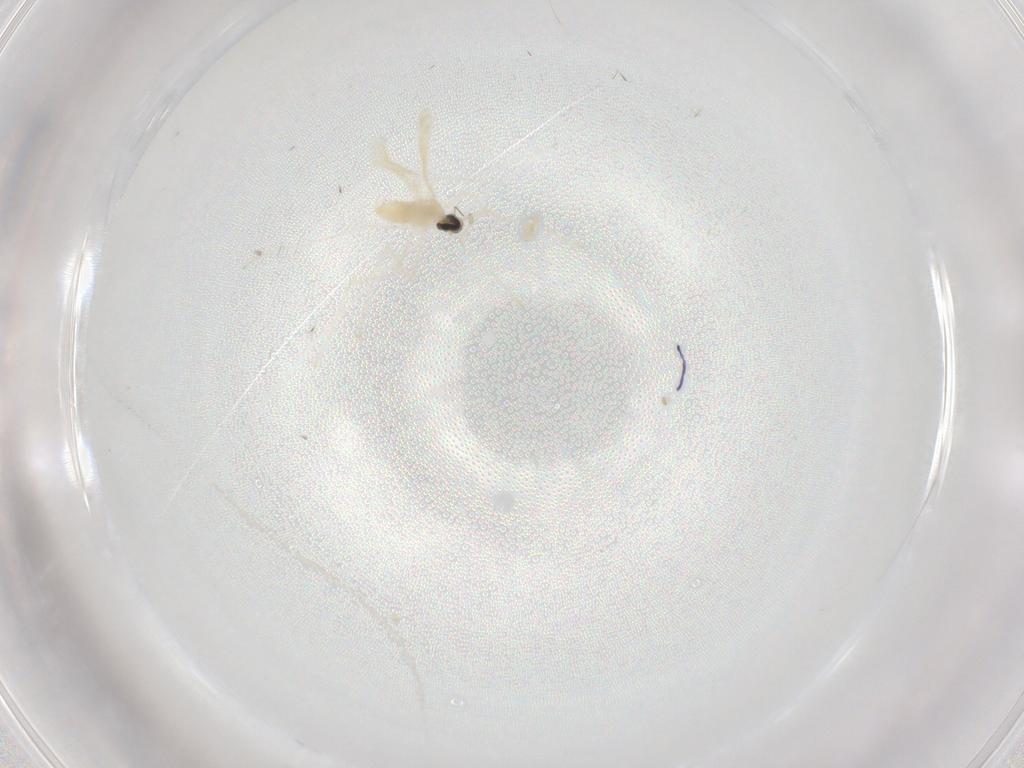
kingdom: Animalia
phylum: Arthropoda
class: Insecta
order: Diptera
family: Cecidomyiidae
